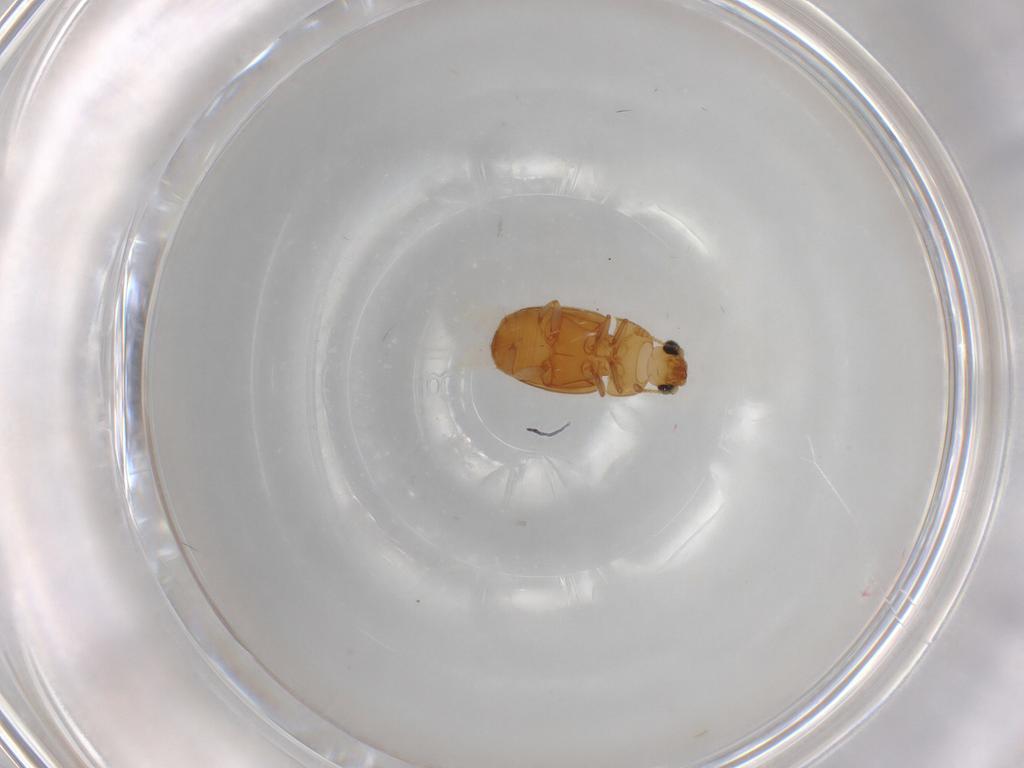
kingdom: Animalia
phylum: Arthropoda
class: Insecta
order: Coleoptera
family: Nitidulidae
